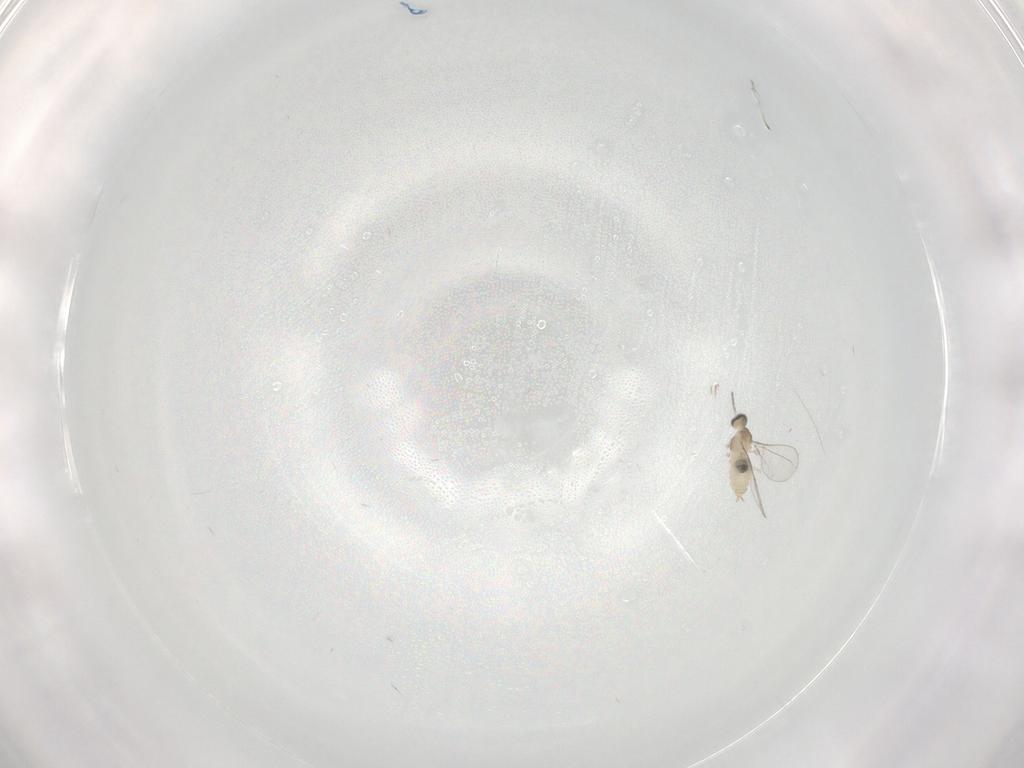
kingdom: Animalia
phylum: Arthropoda
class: Insecta
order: Diptera
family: Cecidomyiidae
